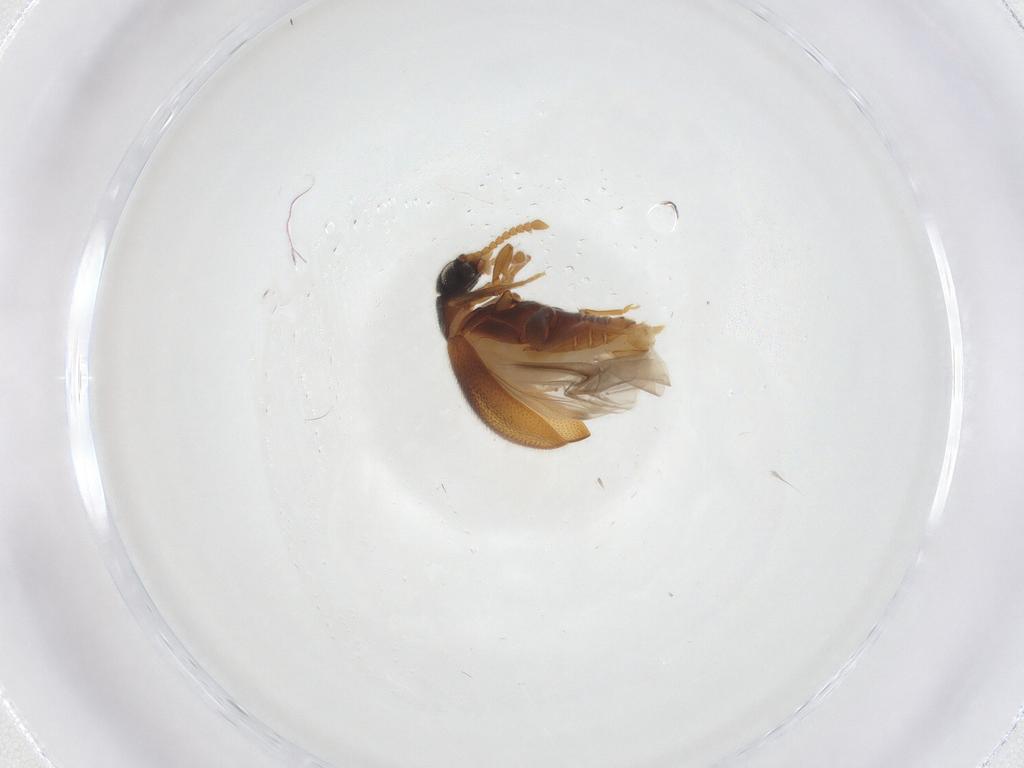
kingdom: Animalia
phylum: Arthropoda
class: Insecta
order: Coleoptera
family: Aderidae
